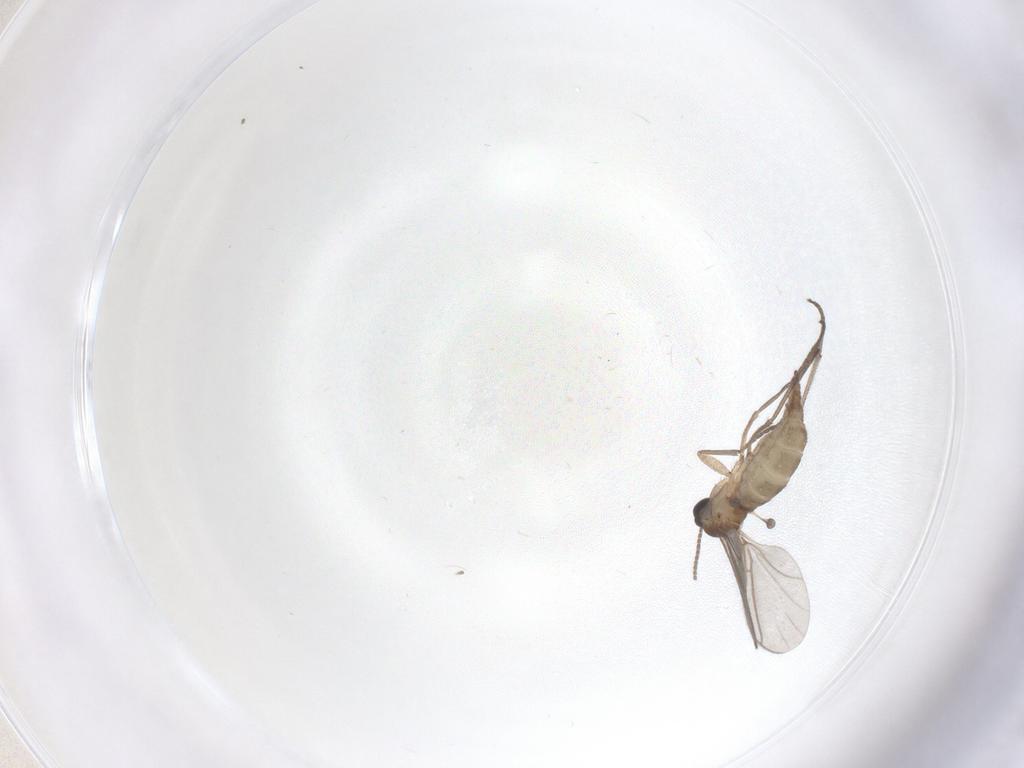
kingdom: Animalia
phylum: Arthropoda
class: Insecta
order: Diptera
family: Sciaridae
